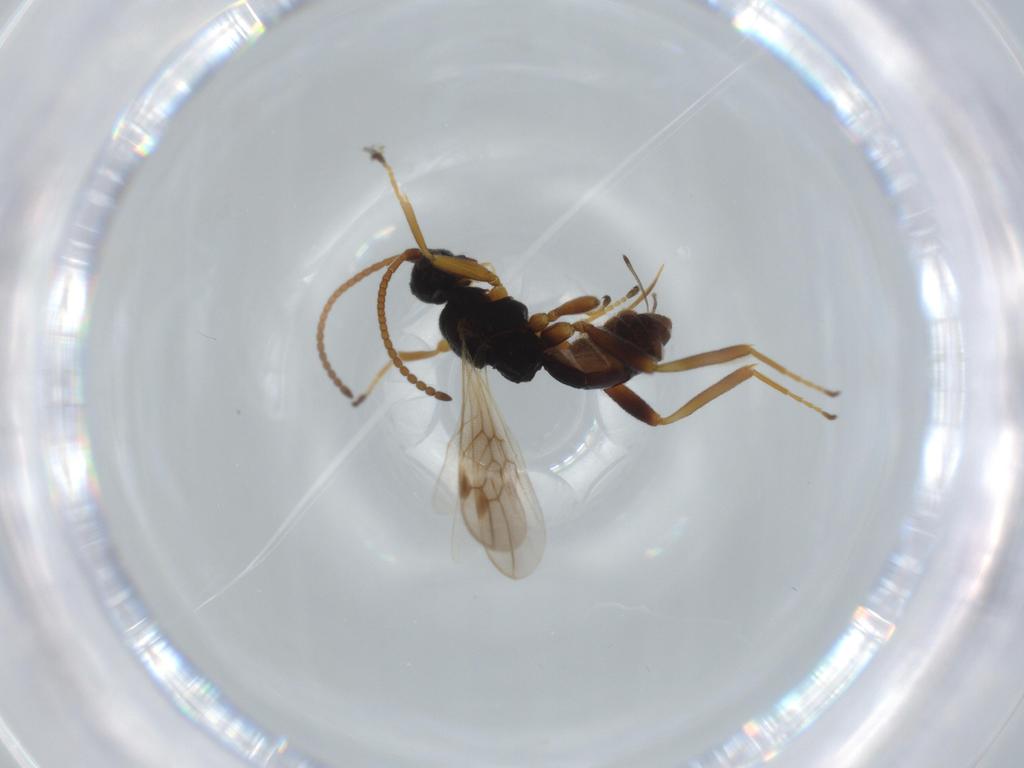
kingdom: Animalia
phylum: Arthropoda
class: Insecta
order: Hymenoptera
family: Braconidae
